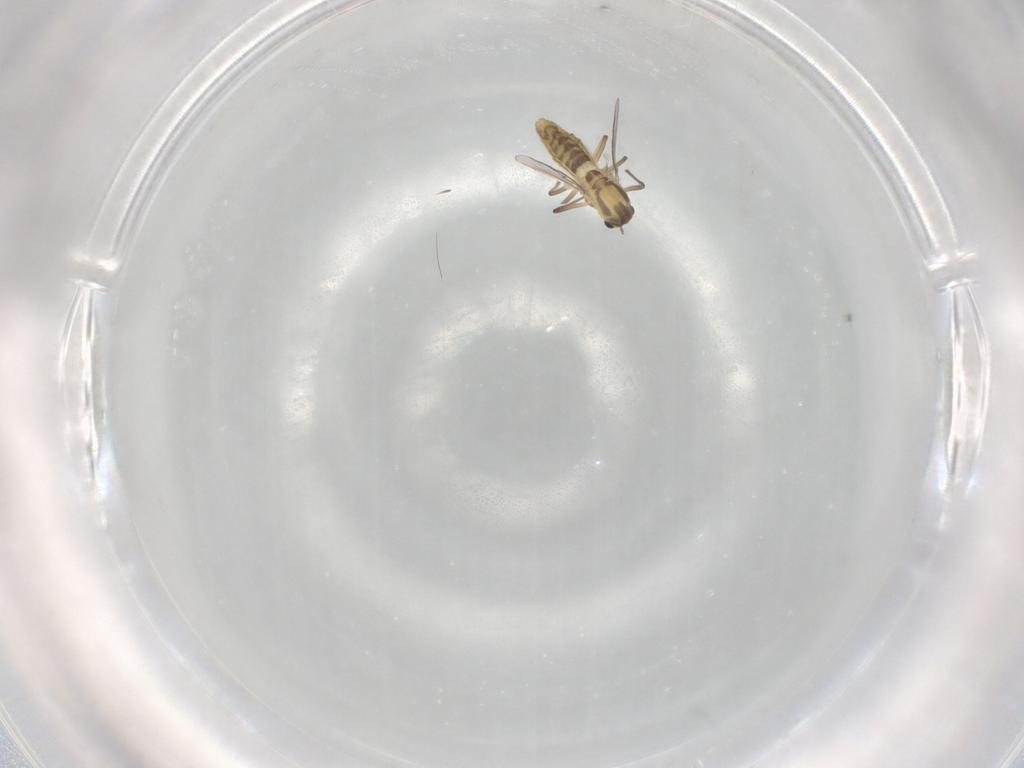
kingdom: Animalia
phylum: Arthropoda
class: Insecta
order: Diptera
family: Chironomidae
